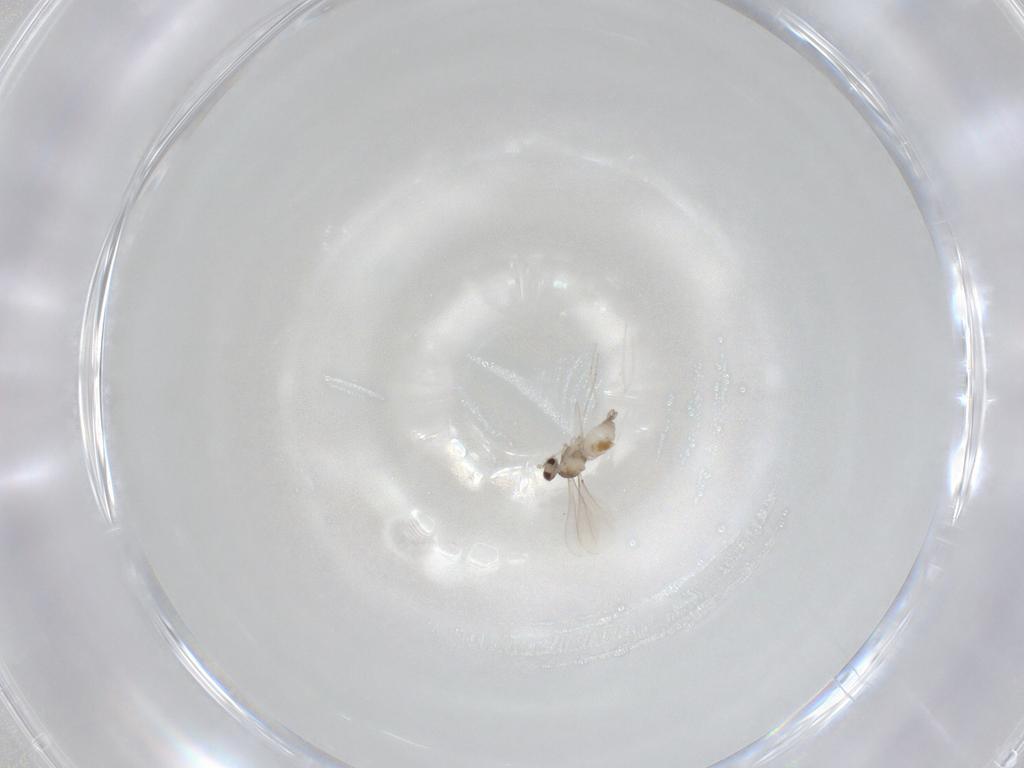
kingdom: Animalia
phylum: Arthropoda
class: Insecta
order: Diptera
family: Cecidomyiidae
